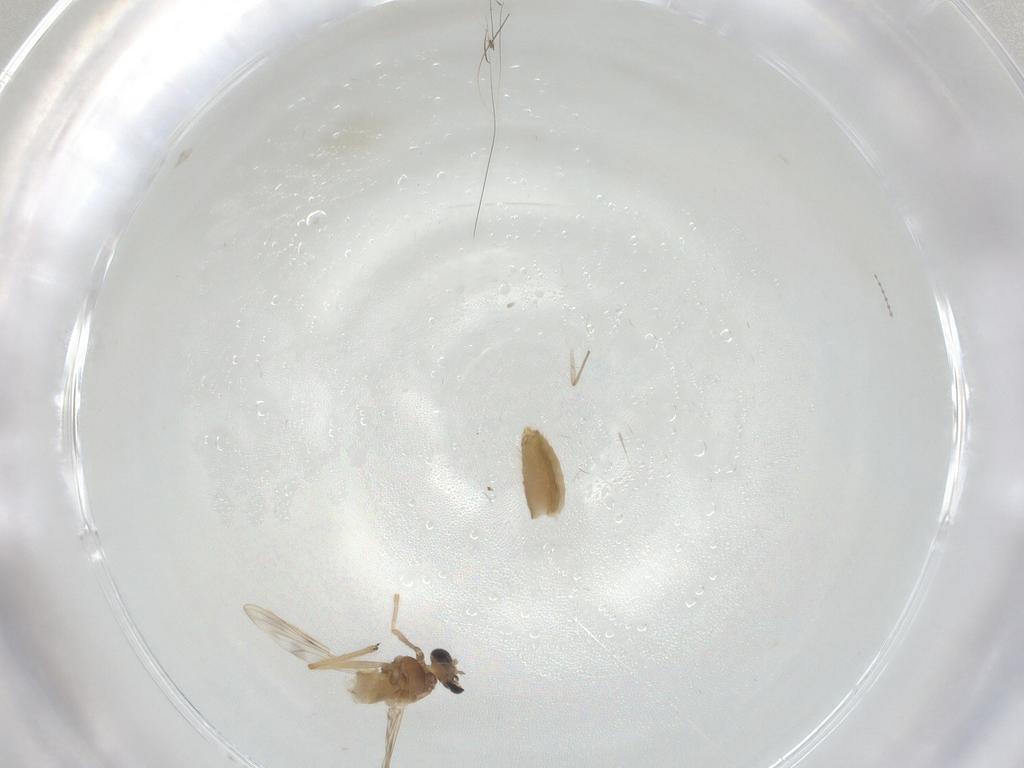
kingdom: Animalia
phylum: Arthropoda
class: Insecta
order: Diptera
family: Chironomidae
